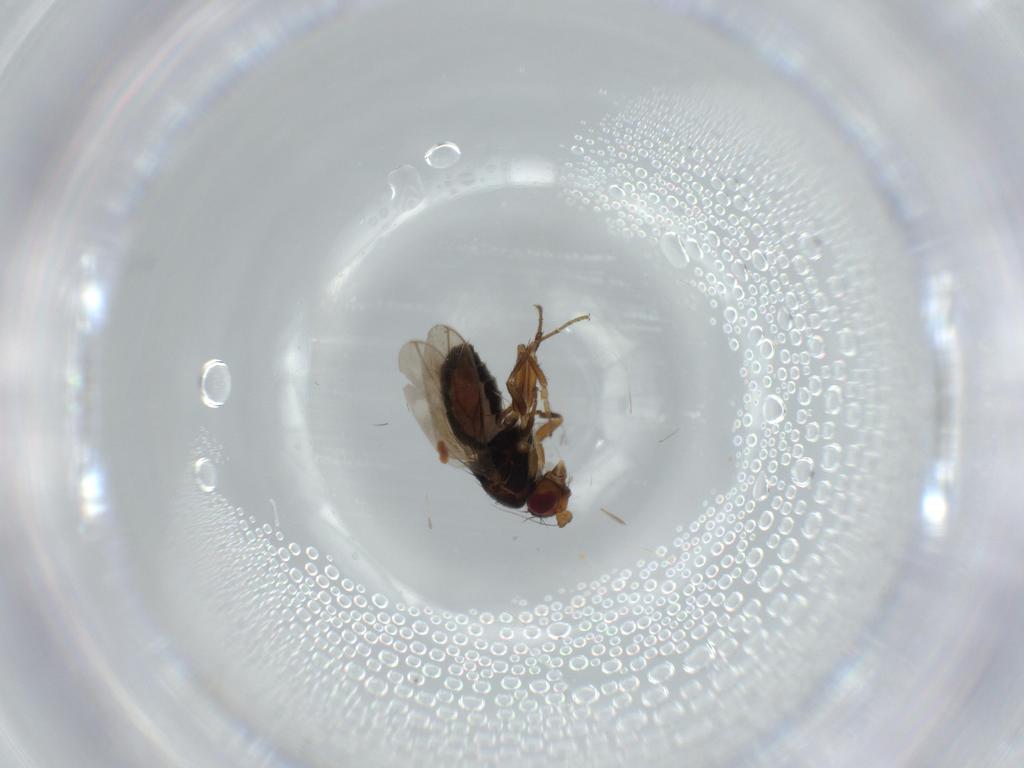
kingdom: Animalia
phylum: Arthropoda
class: Insecta
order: Diptera
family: Sphaeroceridae
